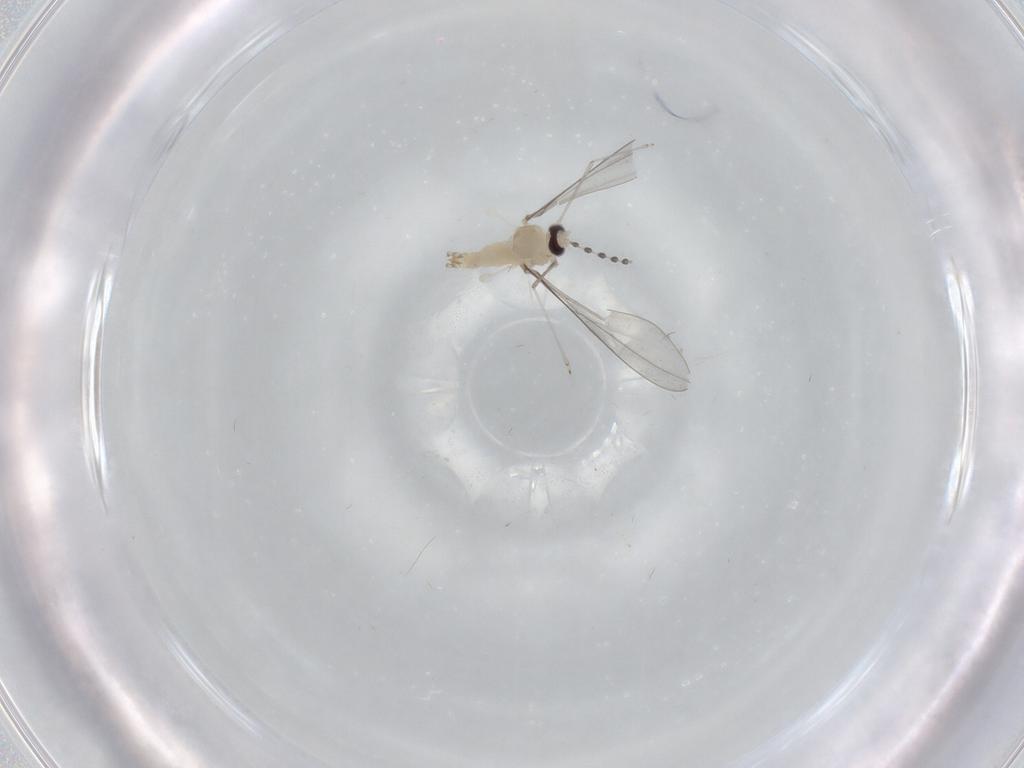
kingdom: Animalia
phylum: Arthropoda
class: Insecta
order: Diptera
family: Cecidomyiidae
